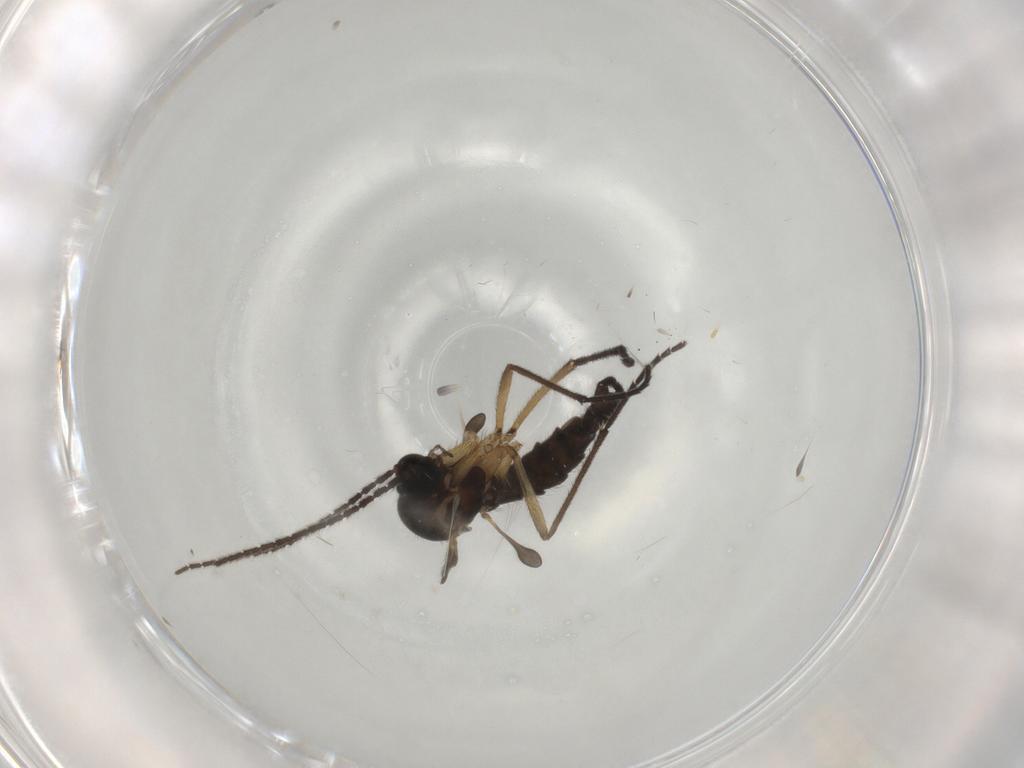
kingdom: Animalia
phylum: Arthropoda
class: Insecta
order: Diptera
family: Sciaridae
